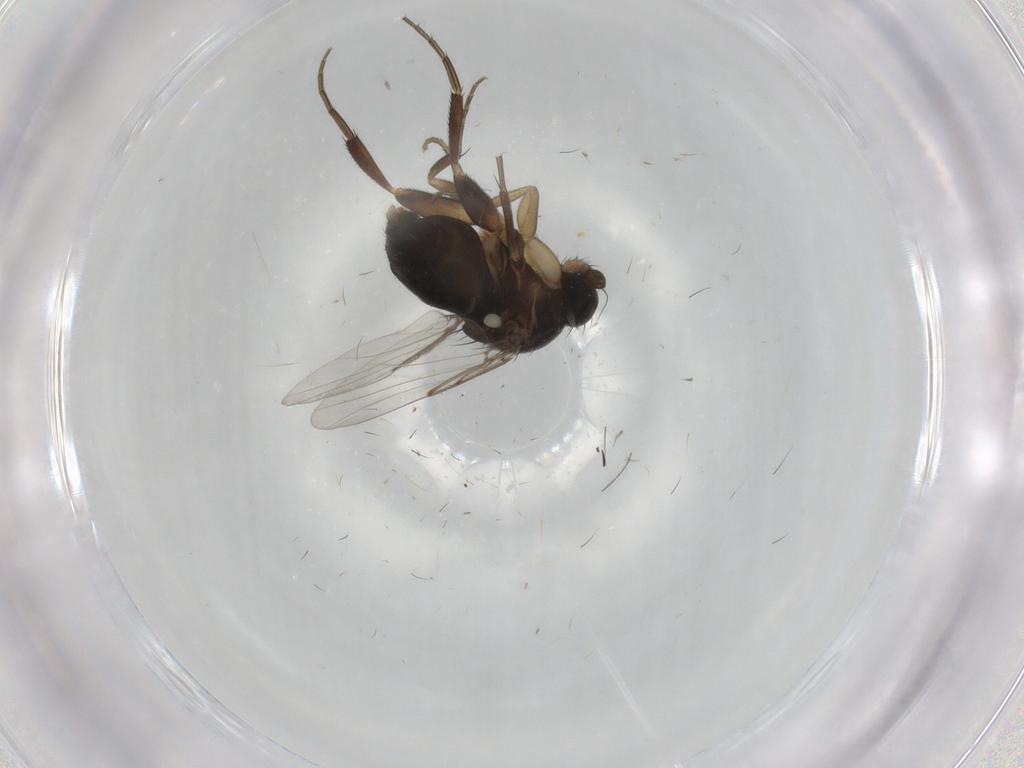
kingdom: Animalia
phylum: Arthropoda
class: Insecta
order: Diptera
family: Phoridae
